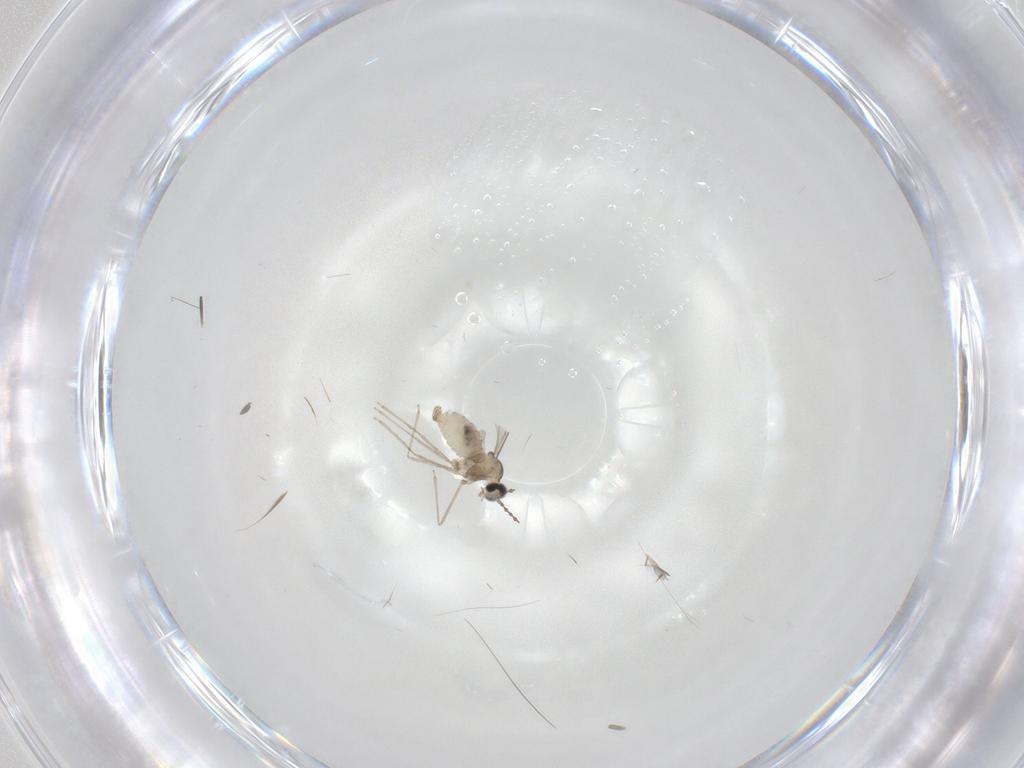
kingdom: Animalia
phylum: Arthropoda
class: Insecta
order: Diptera
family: Cecidomyiidae
